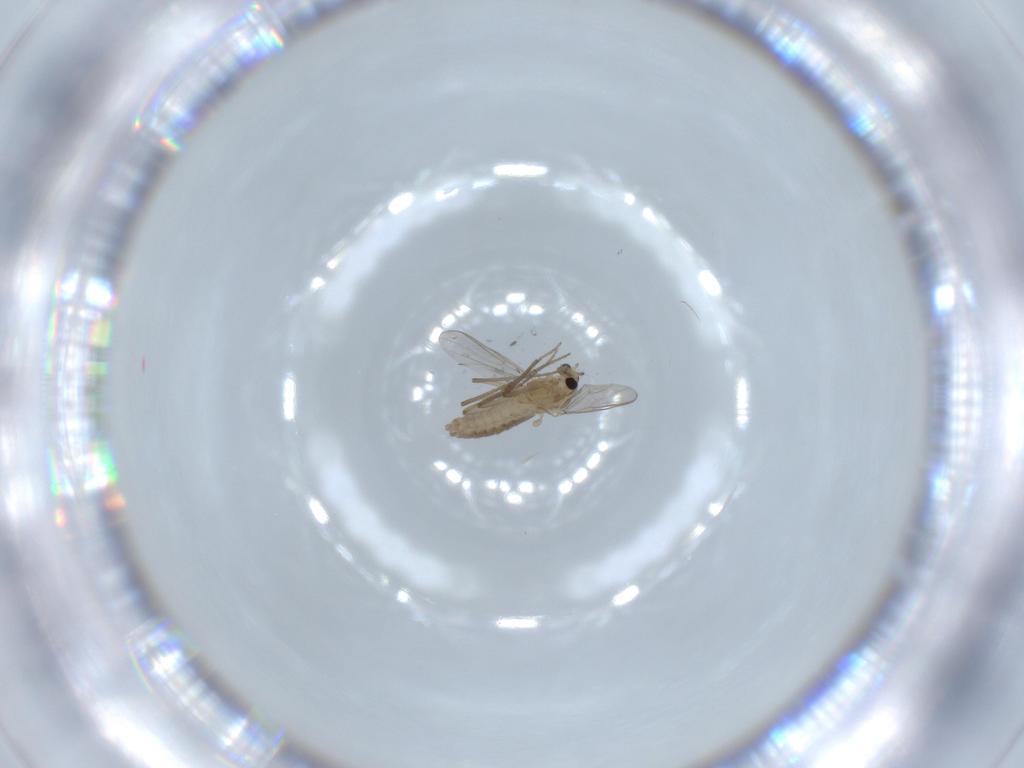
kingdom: Animalia
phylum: Arthropoda
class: Insecta
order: Diptera
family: Chironomidae
